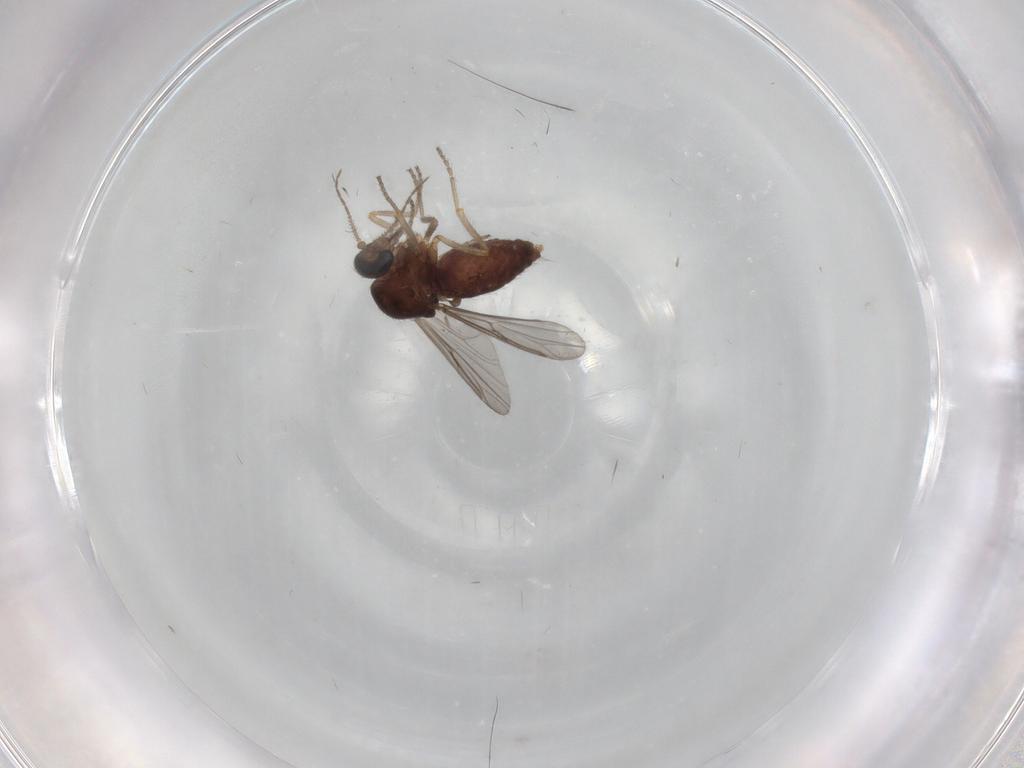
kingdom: Animalia
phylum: Arthropoda
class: Insecta
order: Diptera
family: Ceratopogonidae
